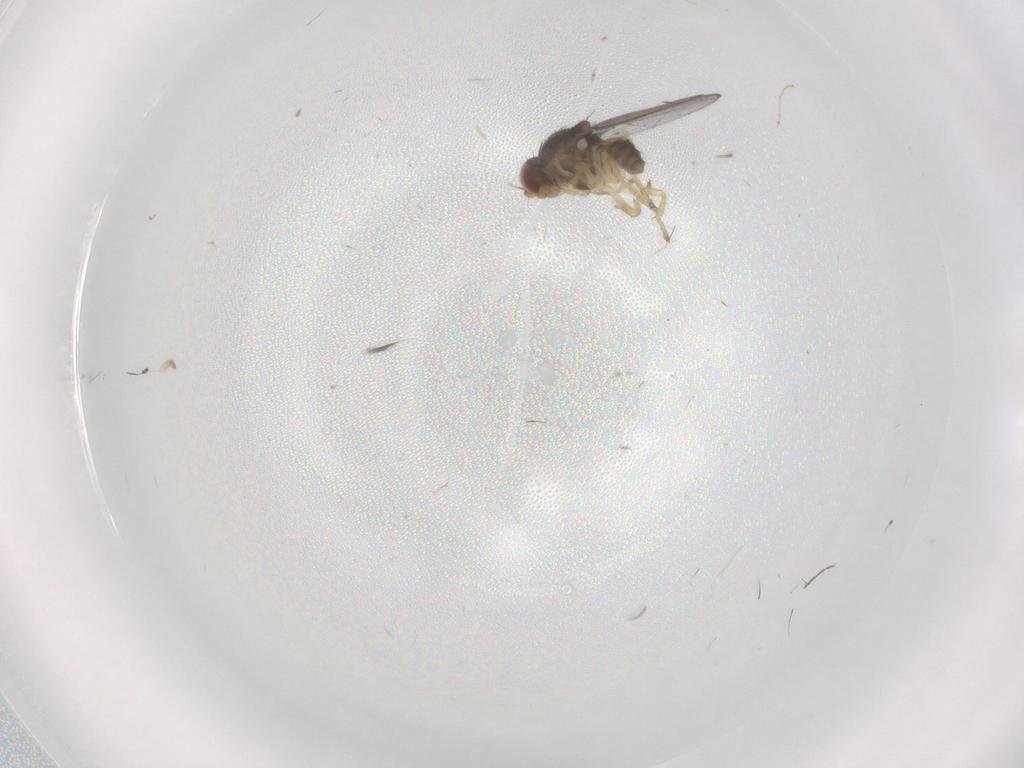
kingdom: Animalia
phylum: Arthropoda
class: Insecta
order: Diptera
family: Chloropidae
